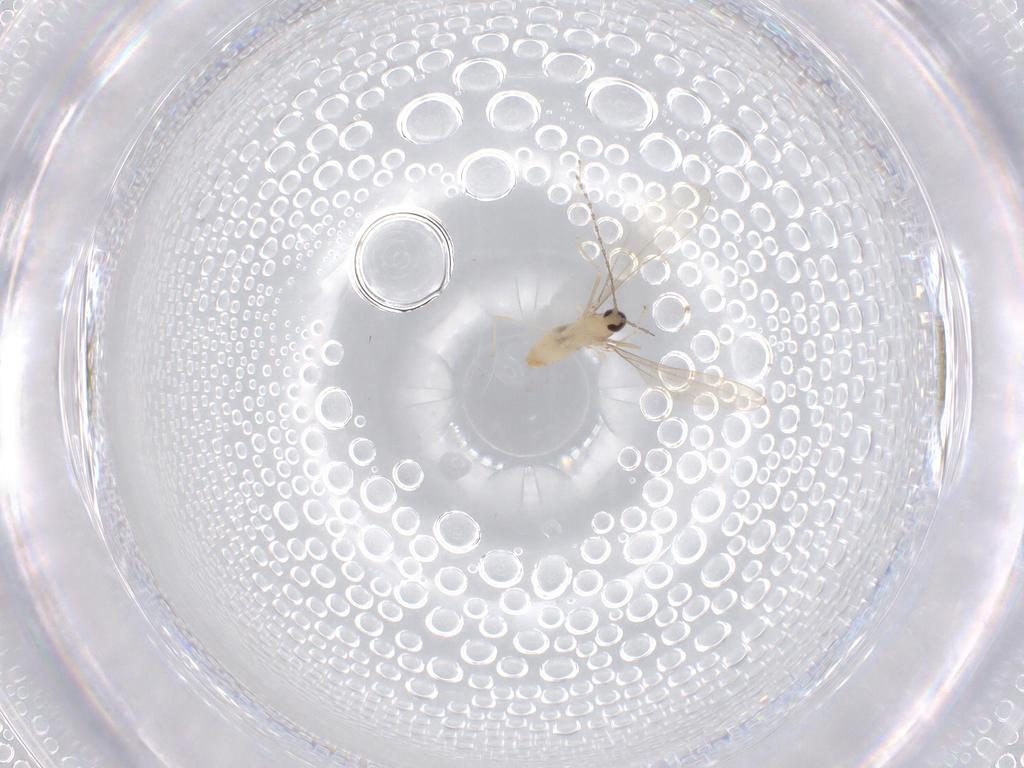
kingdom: Animalia
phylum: Arthropoda
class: Insecta
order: Diptera
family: Cecidomyiidae
